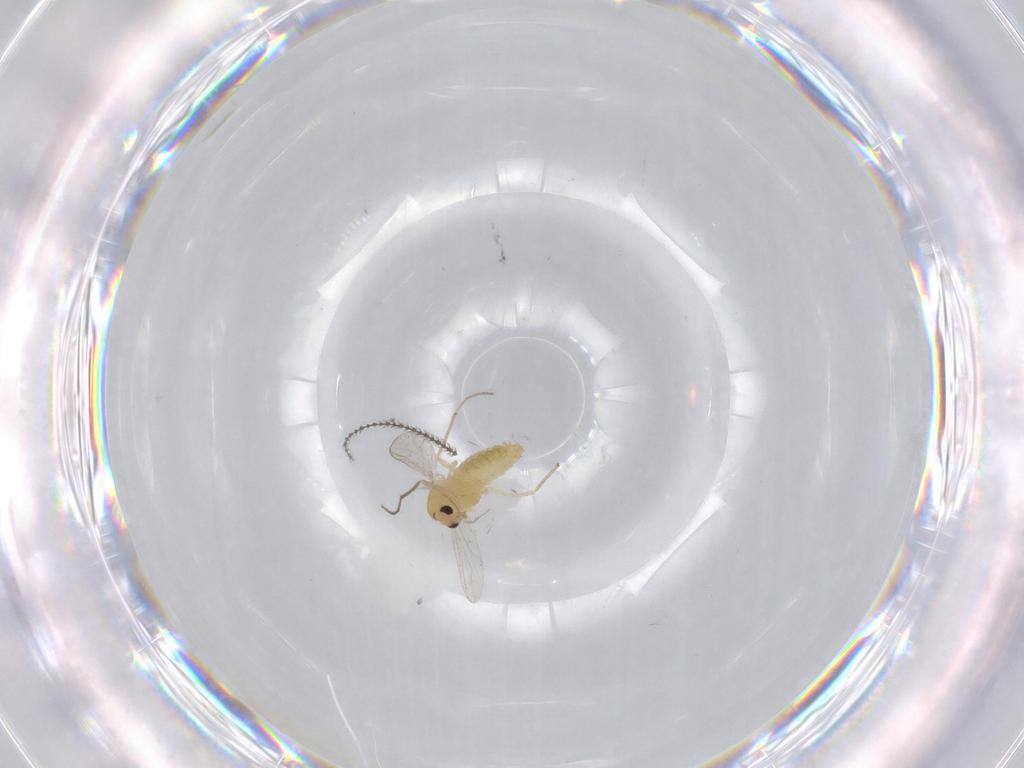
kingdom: Animalia
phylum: Arthropoda
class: Insecta
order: Diptera
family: Chironomidae
